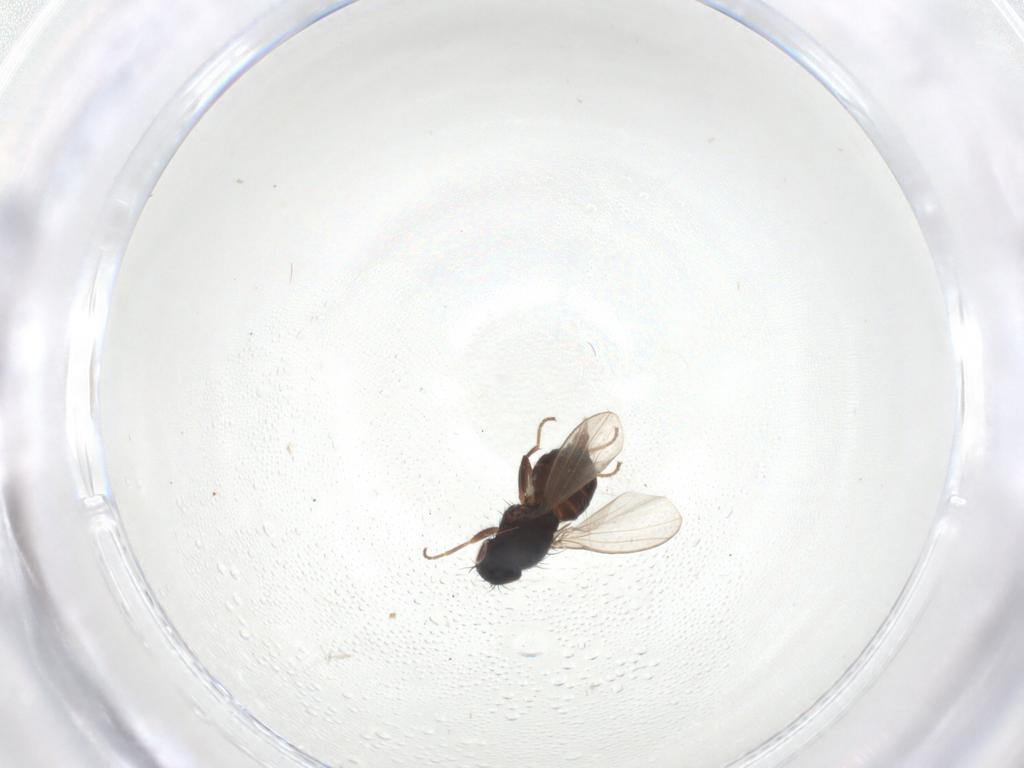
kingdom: Animalia
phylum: Arthropoda
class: Insecta
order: Diptera
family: Carnidae
